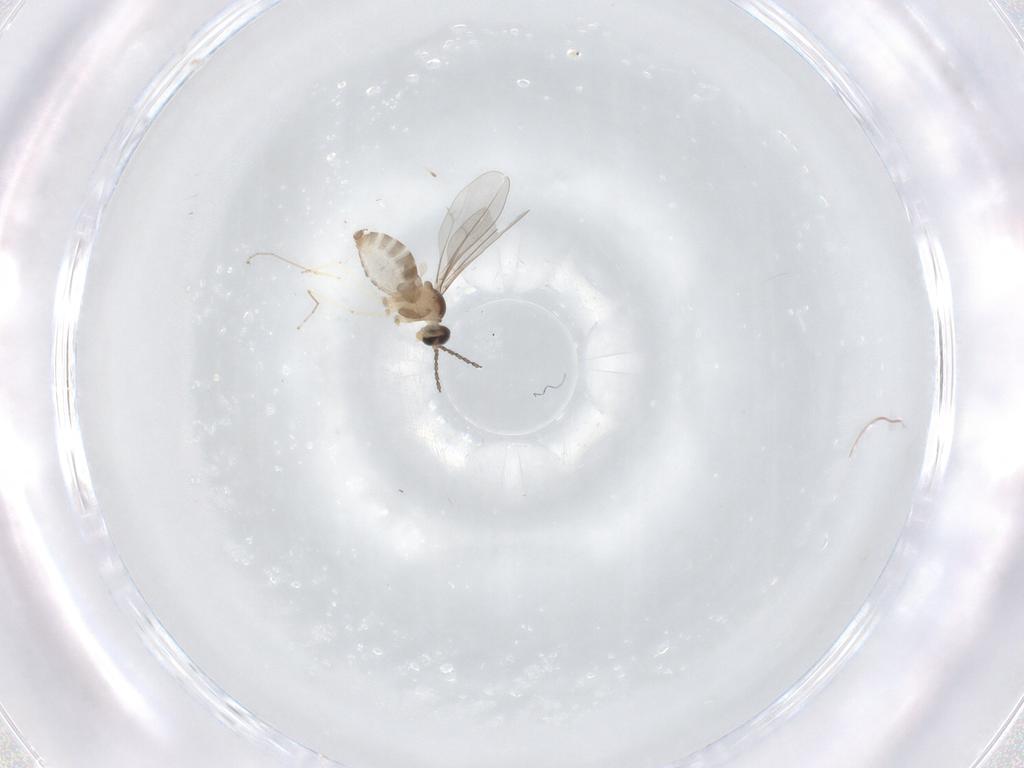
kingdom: Animalia
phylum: Arthropoda
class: Insecta
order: Diptera
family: Cecidomyiidae
